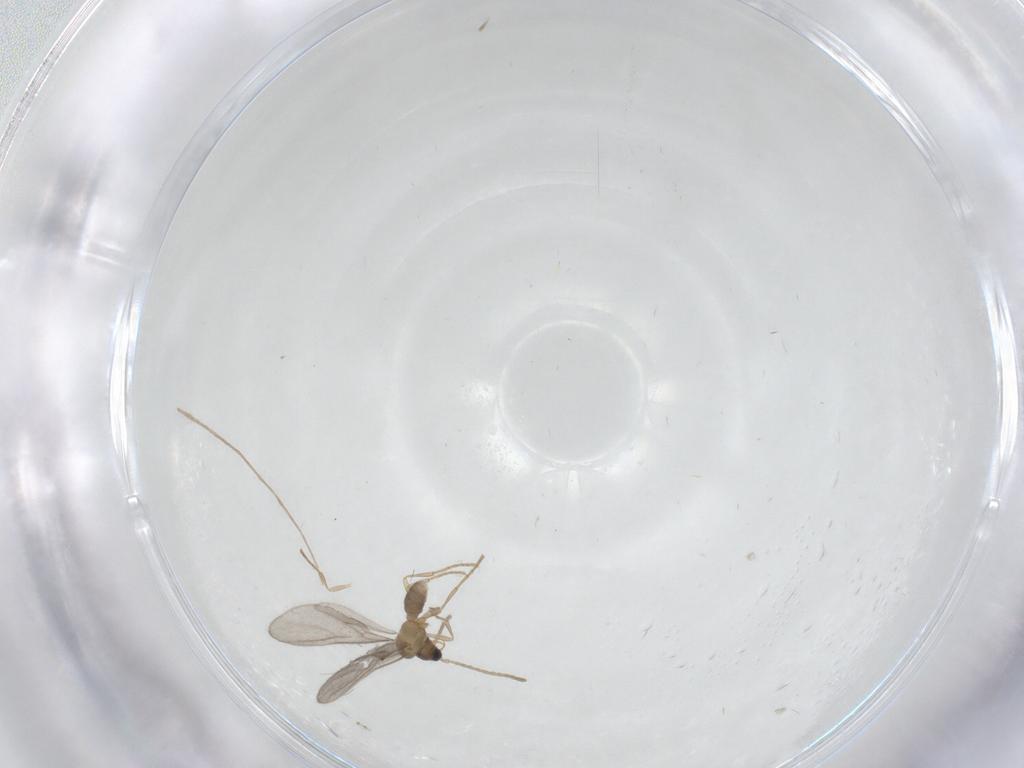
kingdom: Animalia
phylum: Arthropoda
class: Insecta
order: Hymenoptera
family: Formicidae
